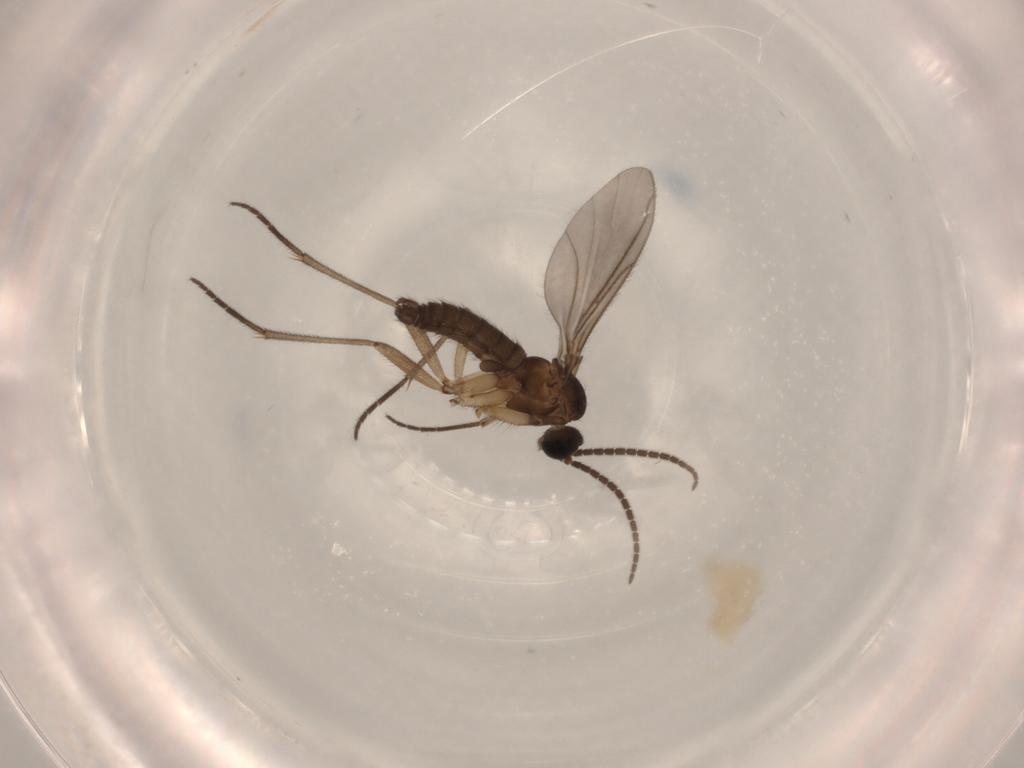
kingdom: Animalia
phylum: Arthropoda
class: Insecta
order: Diptera
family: Sciaridae
